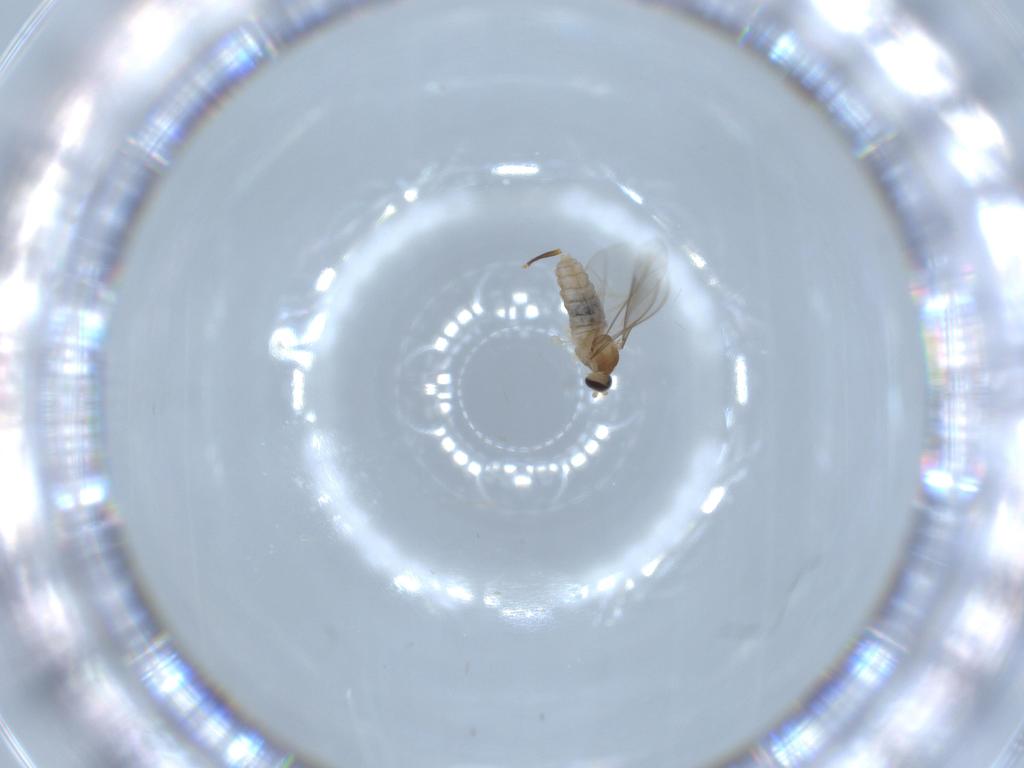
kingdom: Animalia
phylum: Arthropoda
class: Insecta
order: Diptera
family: Cecidomyiidae
